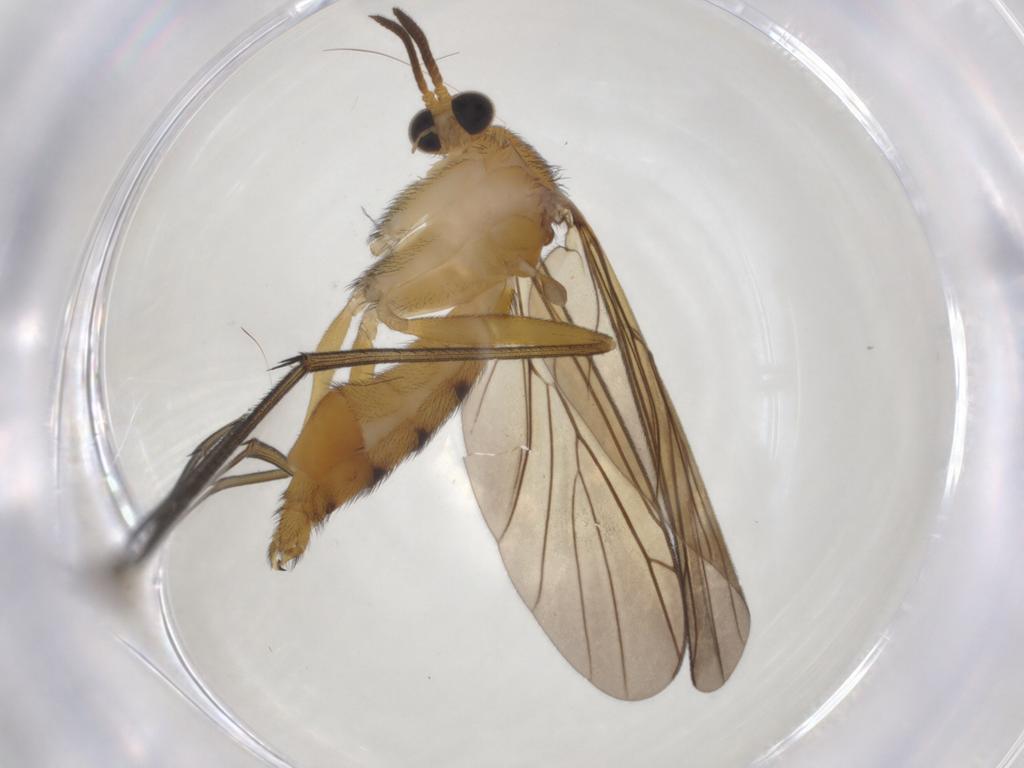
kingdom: Animalia
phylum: Arthropoda
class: Insecta
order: Diptera
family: Keroplatidae
